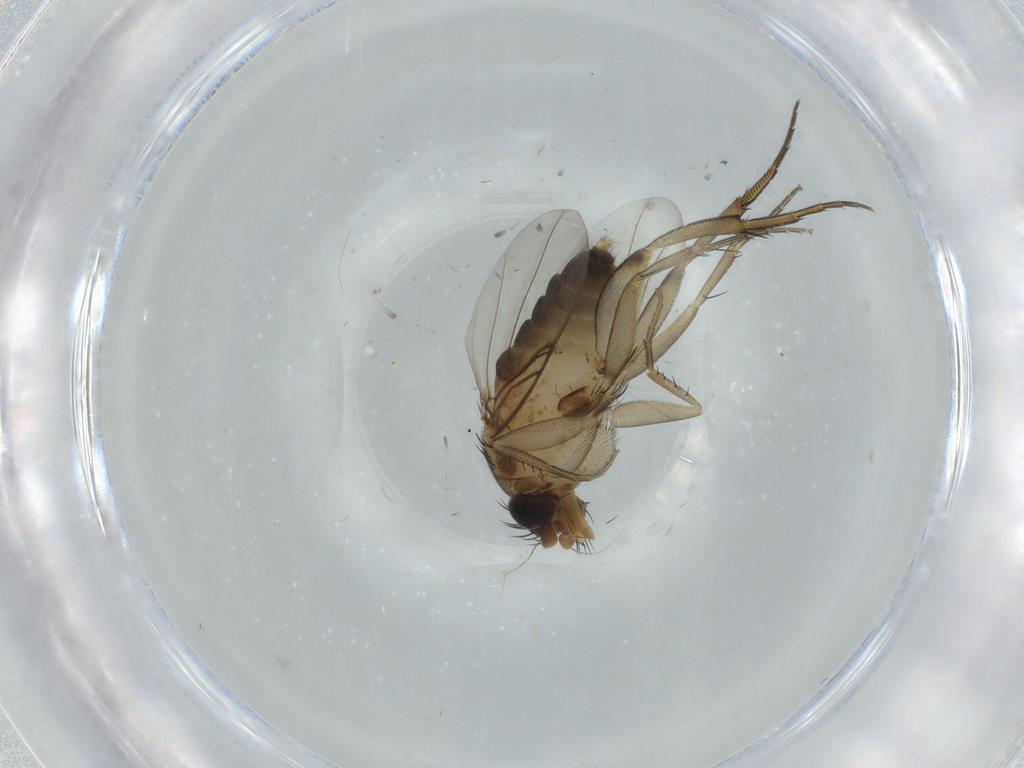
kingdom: Animalia
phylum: Arthropoda
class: Insecta
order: Diptera
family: Phoridae
